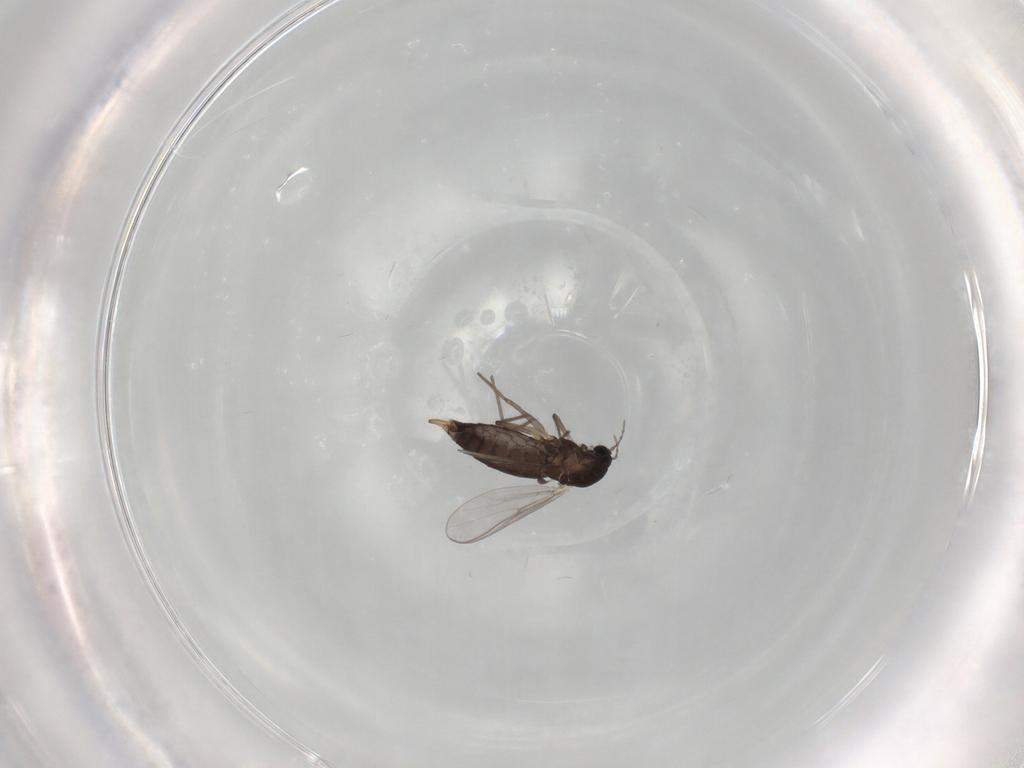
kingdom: Animalia
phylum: Arthropoda
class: Insecta
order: Diptera
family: Chironomidae
